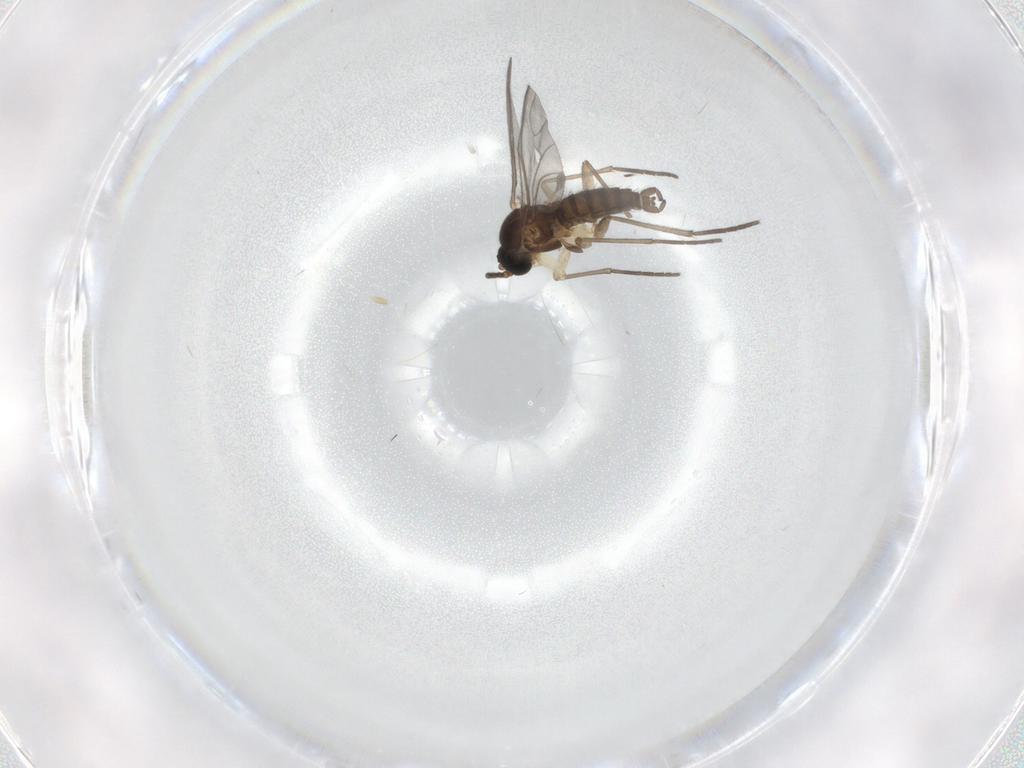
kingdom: Animalia
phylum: Arthropoda
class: Insecta
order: Diptera
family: Sciaridae
